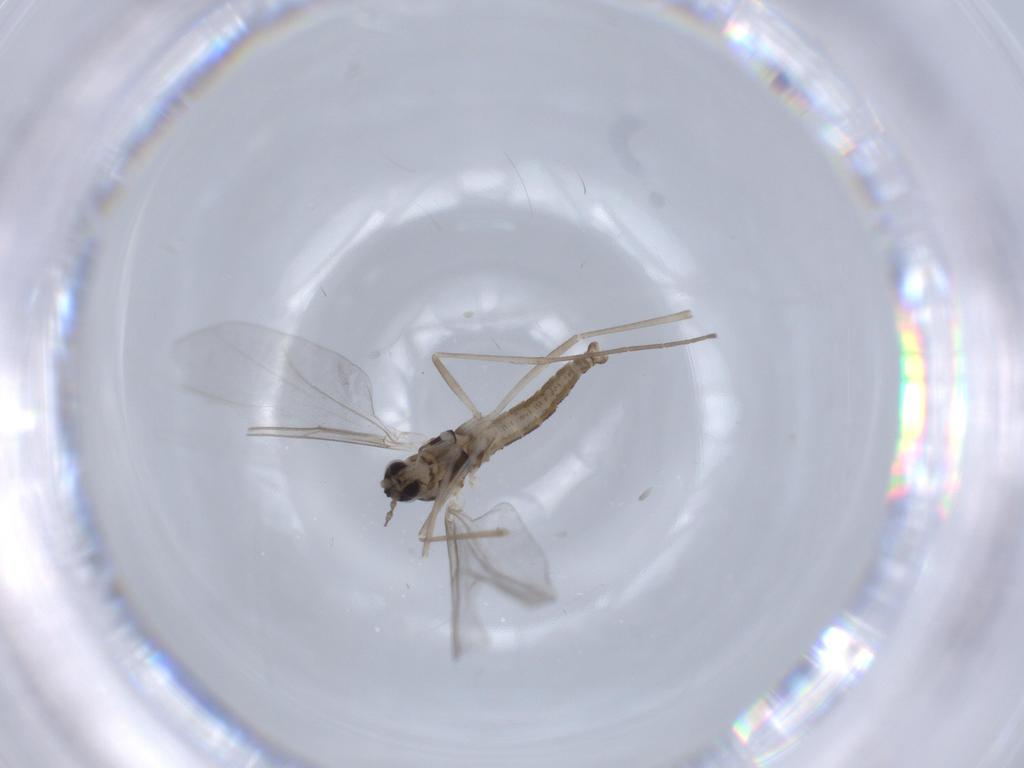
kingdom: Animalia
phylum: Arthropoda
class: Insecta
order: Diptera
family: Chironomidae
